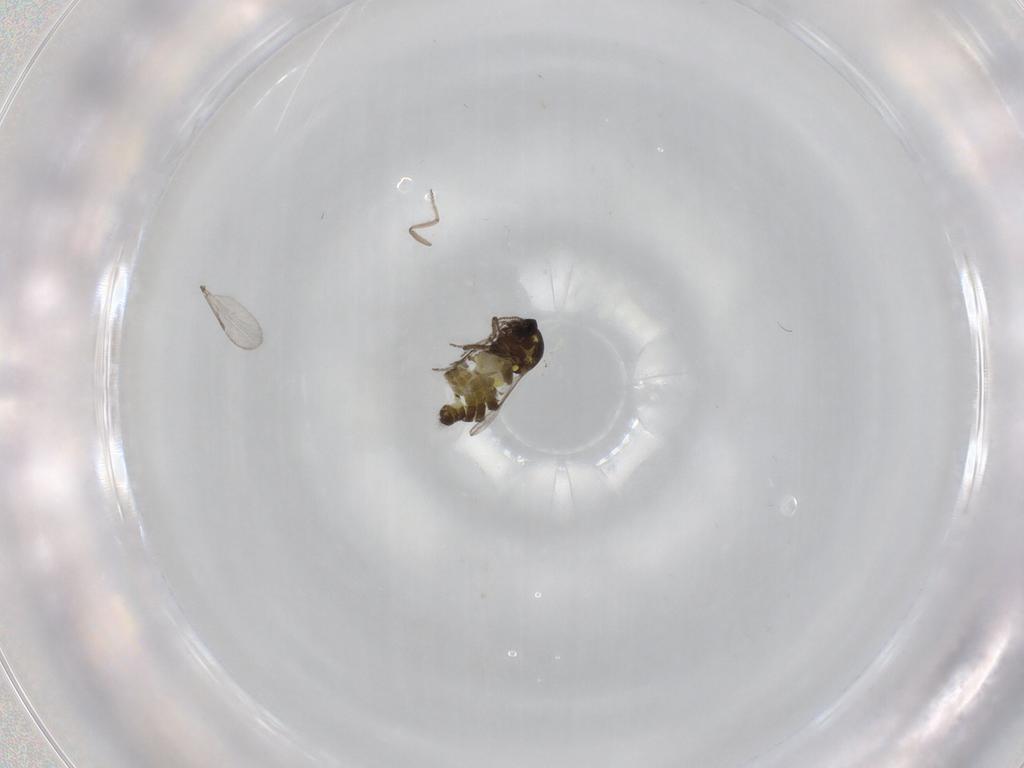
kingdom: Animalia
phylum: Arthropoda
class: Insecta
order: Diptera
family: Ceratopogonidae
